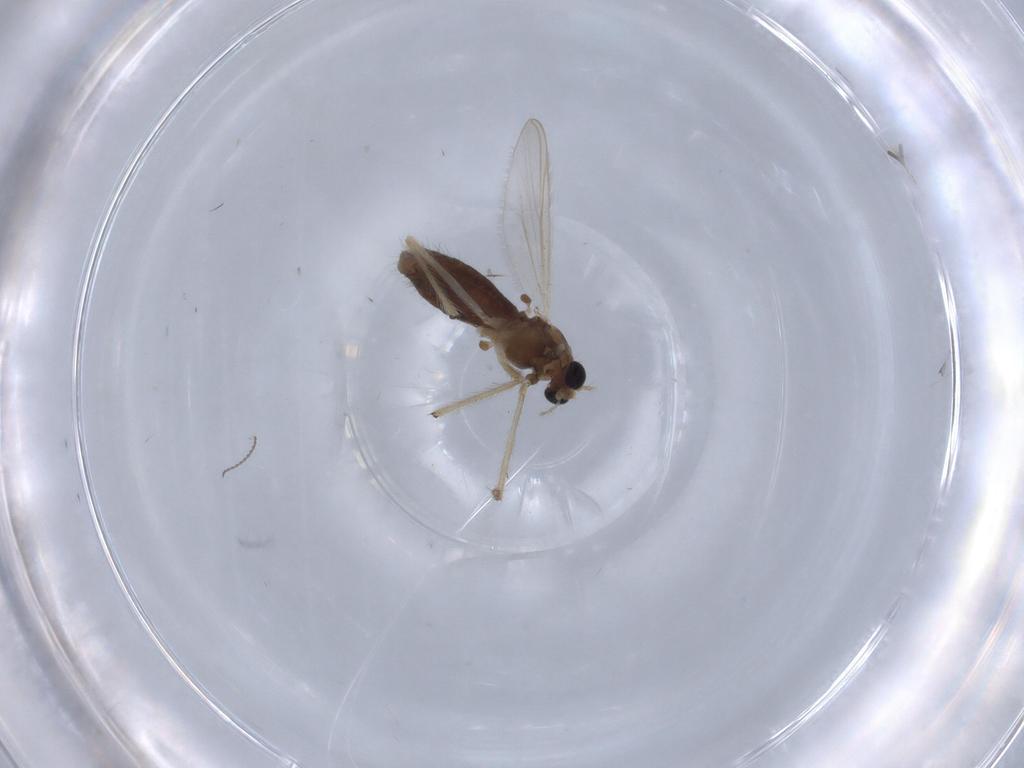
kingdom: Animalia
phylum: Arthropoda
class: Insecta
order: Diptera
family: Chironomidae
